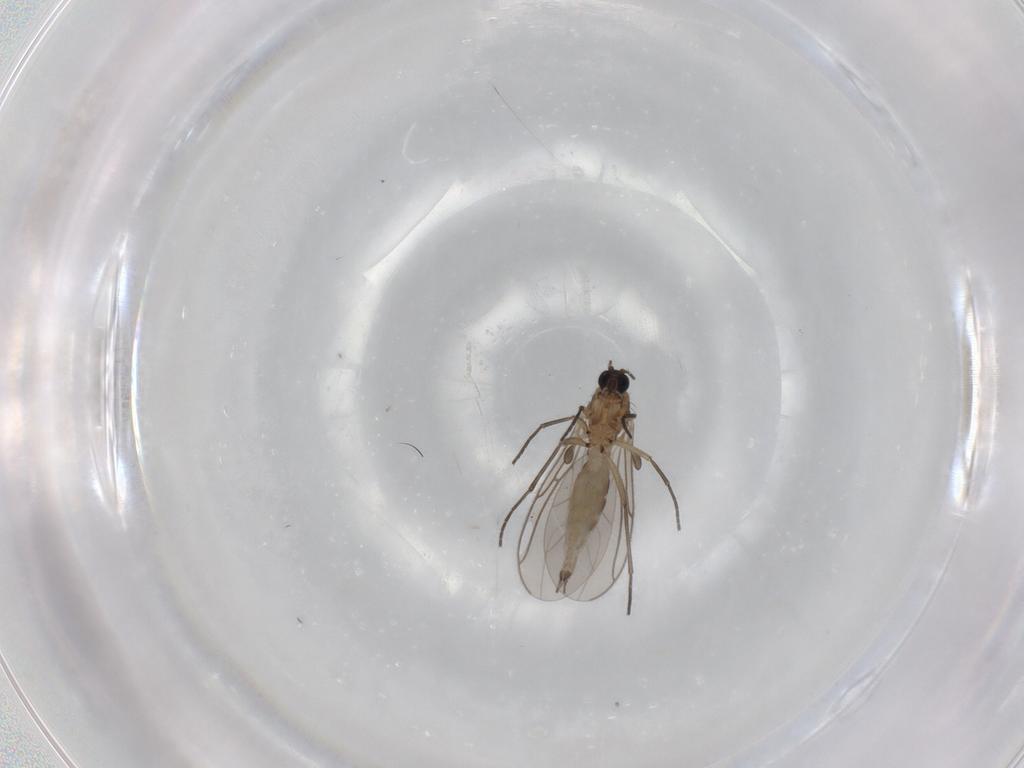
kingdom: Animalia
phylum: Arthropoda
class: Insecta
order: Diptera
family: Sciaridae
